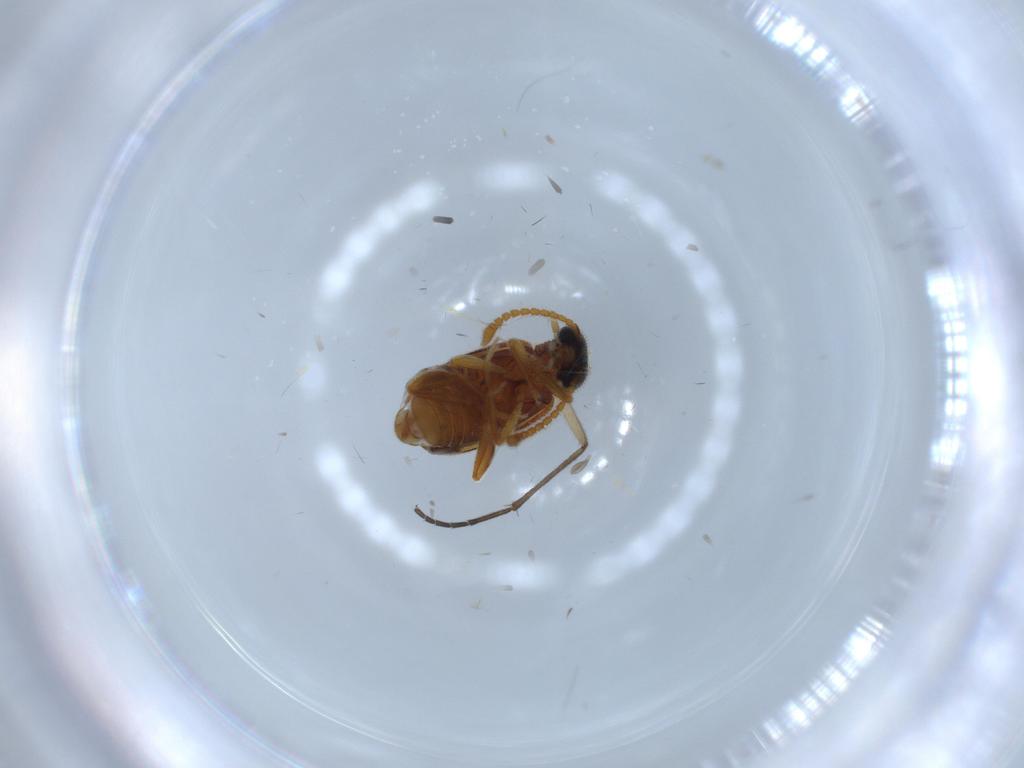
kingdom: Animalia
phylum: Arthropoda
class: Insecta
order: Coleoptera
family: Aderidae
